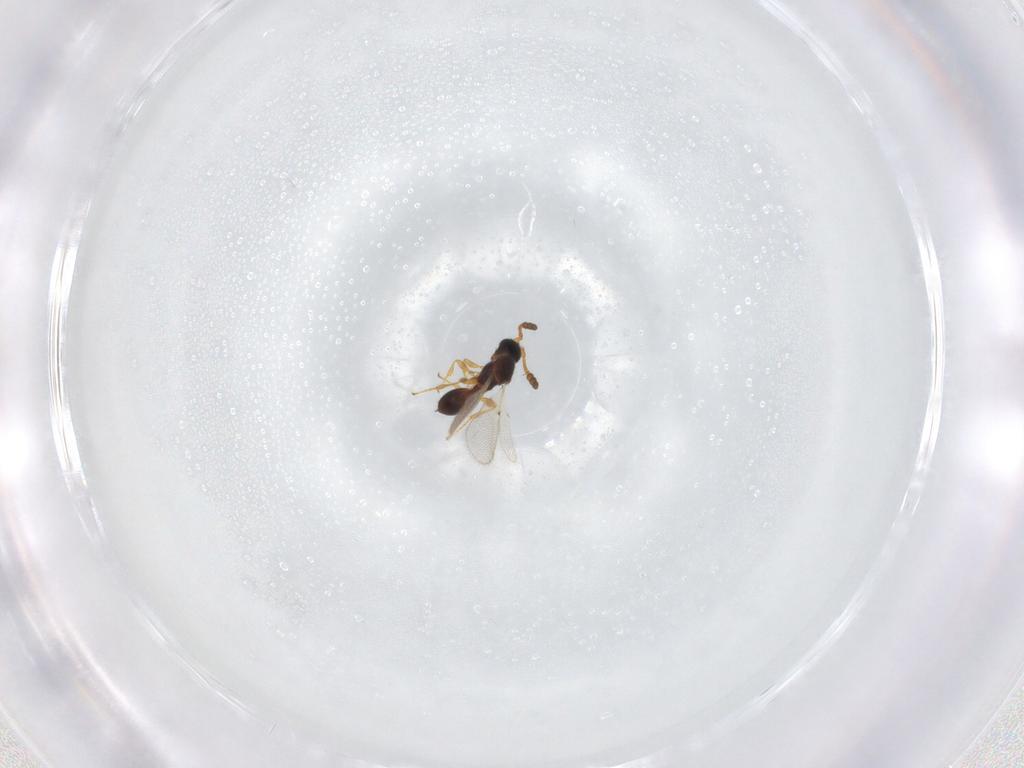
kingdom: Animalia
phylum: Arthropoda
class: Insecta
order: Hymenoptera
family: Diapriidae
